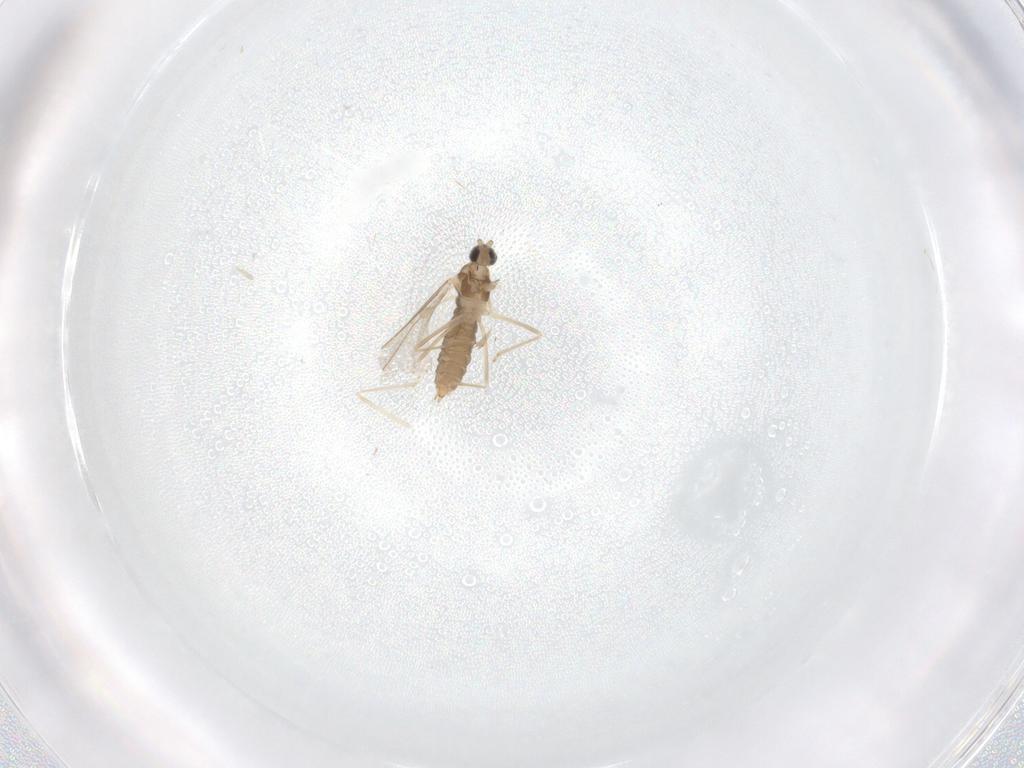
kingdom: Animalia
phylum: Arthropoda
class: Insecta
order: Diptera
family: Cecidomyiidae
